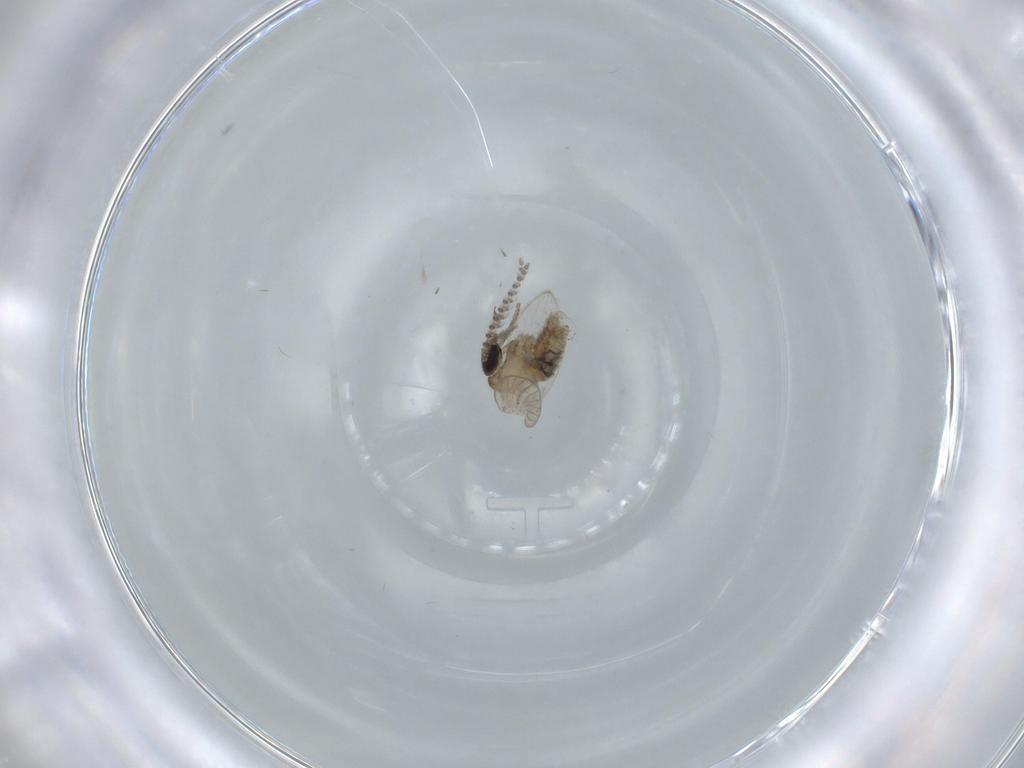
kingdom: Animalia
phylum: Arthropoda
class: Insecta
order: Diptera
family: Psychodidae
